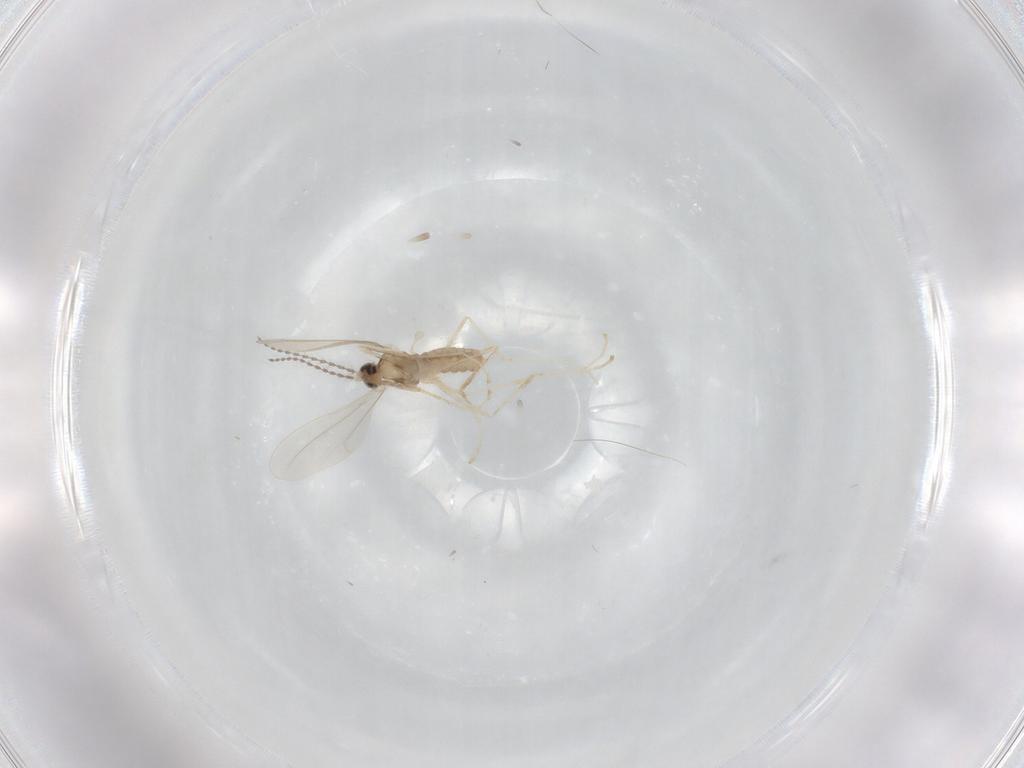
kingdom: Animalia
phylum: Arthropoda
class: Insecta
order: Diptera
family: Cecidomyiidae
